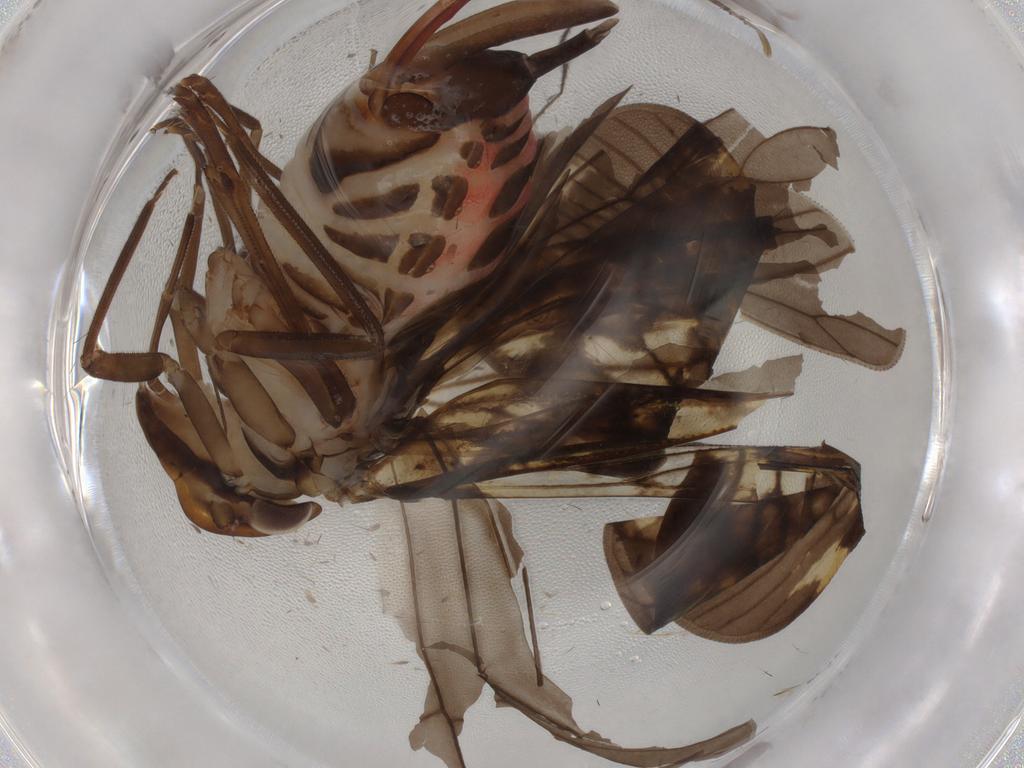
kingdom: Animalia
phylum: Arthropoda
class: Insecta
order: Hemiptera
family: Cixiidae
